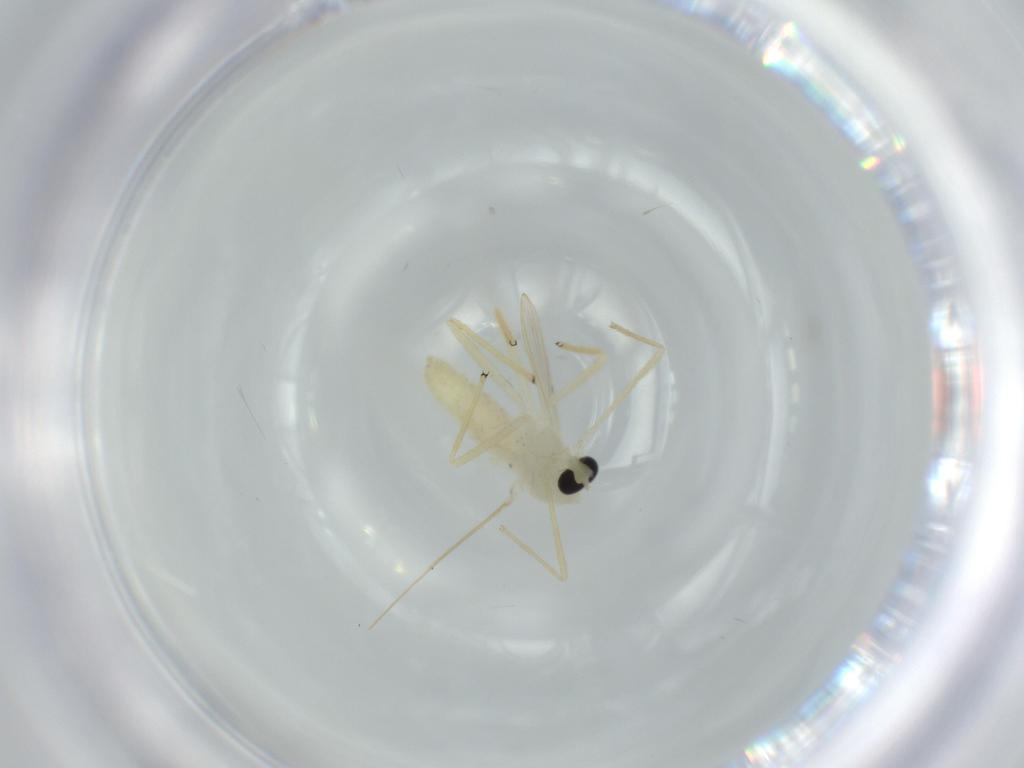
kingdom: Animalia
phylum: Arthropoda
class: Insecta
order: Diptera
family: Chironomidae
